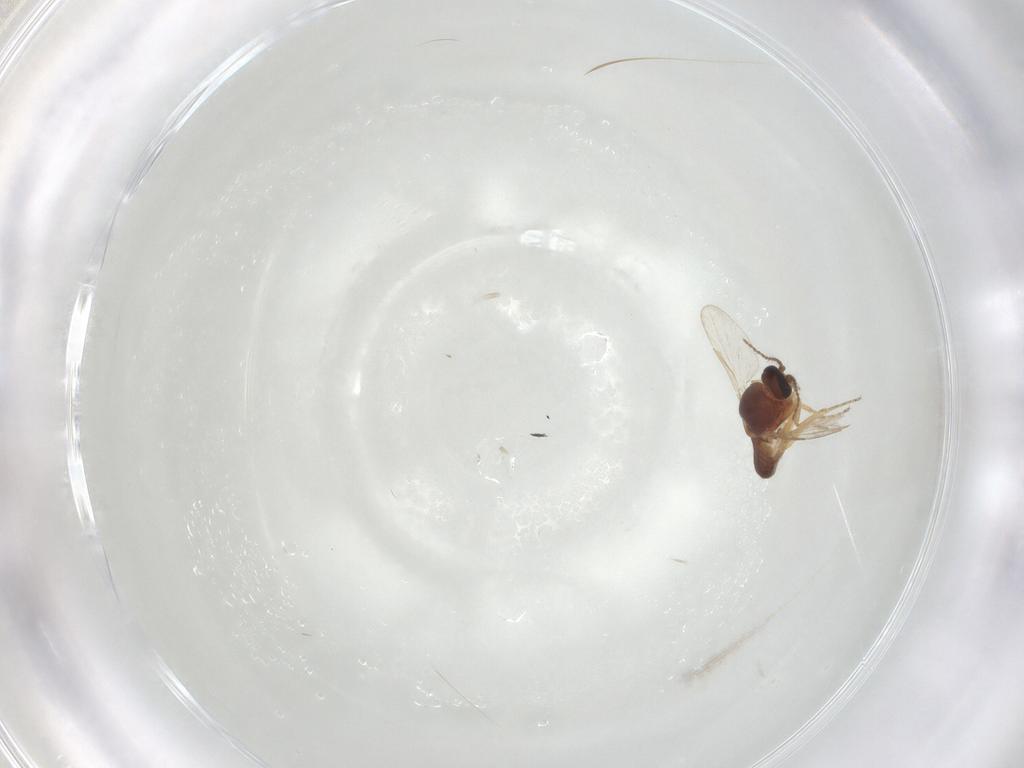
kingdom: Animalia
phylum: Arthropoda
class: Insecta
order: Diptera
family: Ceratopogonidae
